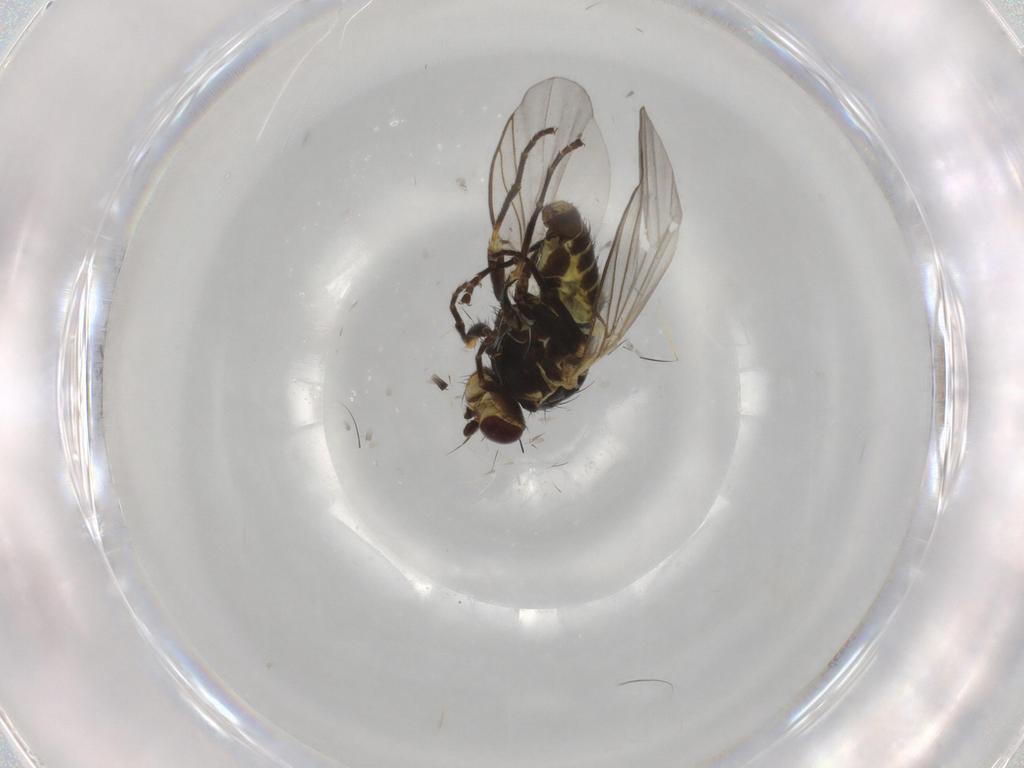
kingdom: Animalia
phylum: Arthropoda
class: Insecta
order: Diptera
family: Agromyzidae
